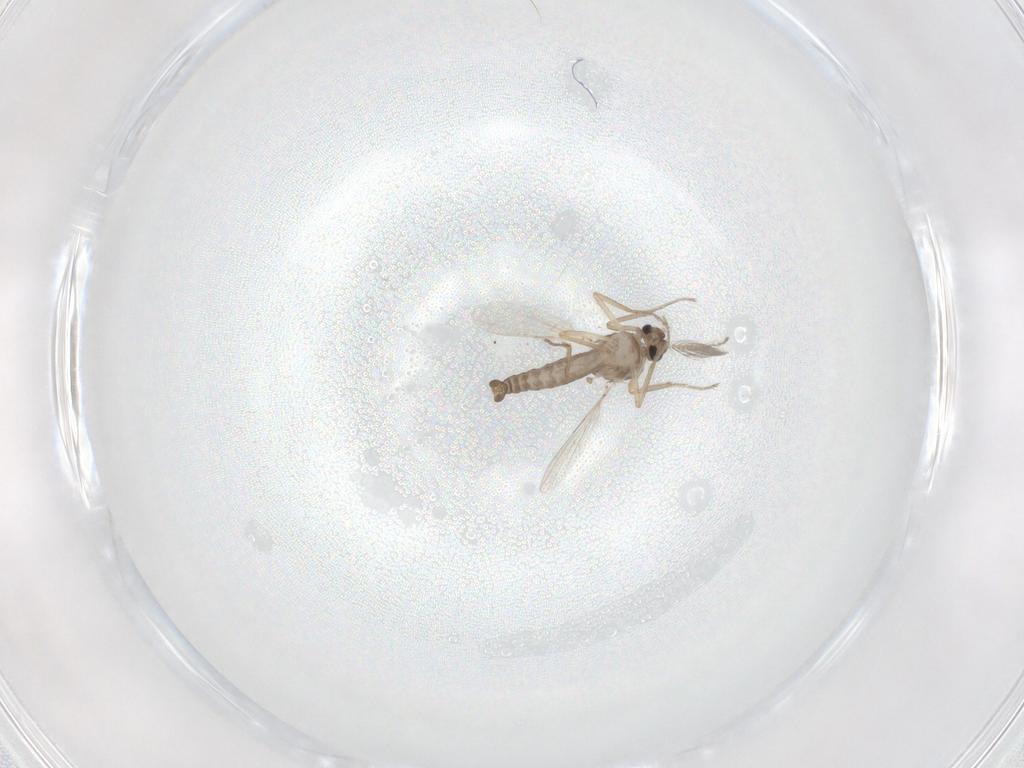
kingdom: Animalia
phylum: Arthropoda
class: Insecta
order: Diptera
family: Ceratopogonidae
